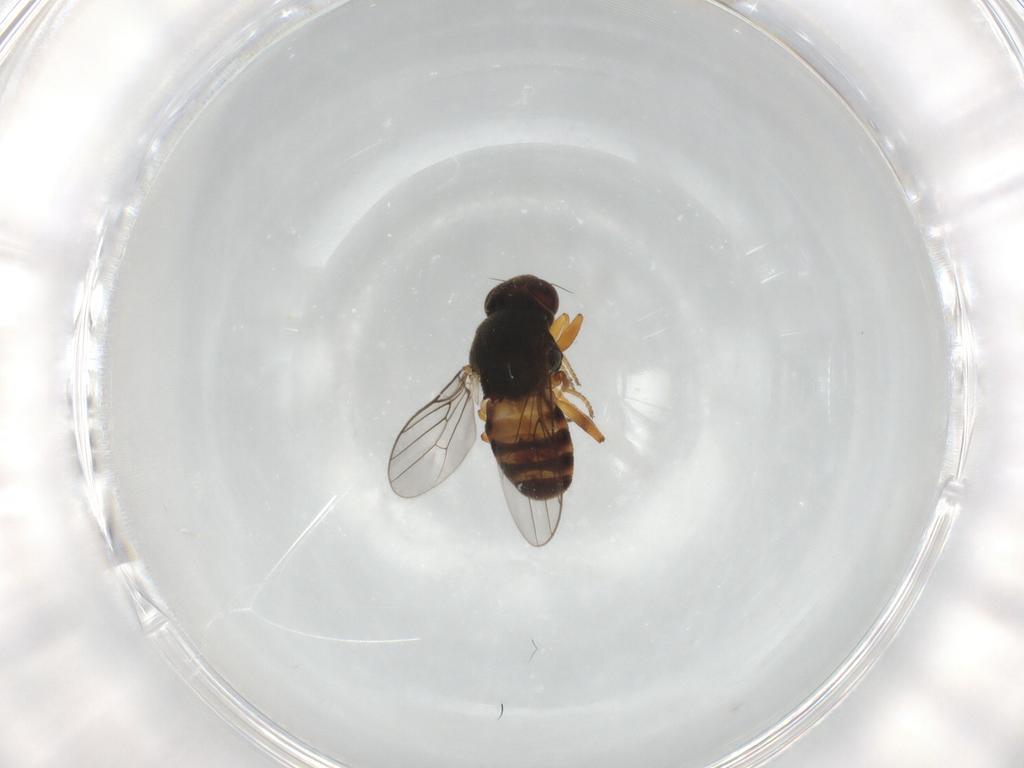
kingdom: Animalia
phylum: Arthropoda
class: Insecta
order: Diptera
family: Chloropidae
